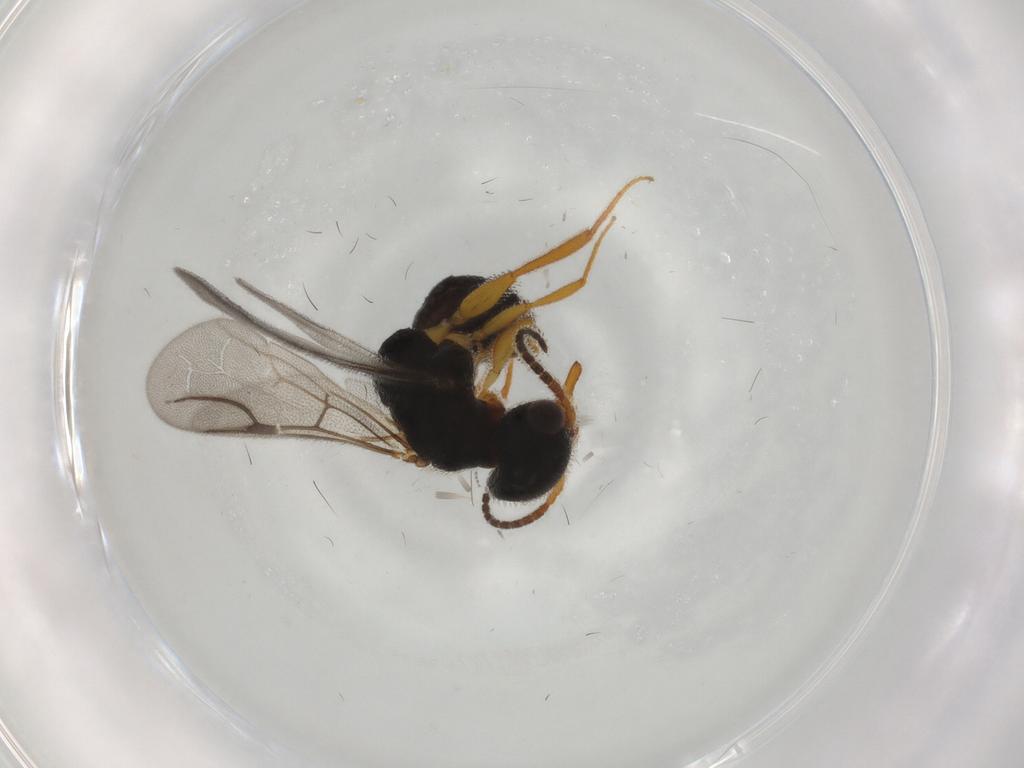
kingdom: Animalia
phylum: Arthropoda
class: Insecta
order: Hymenoptera
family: Bethylidae
